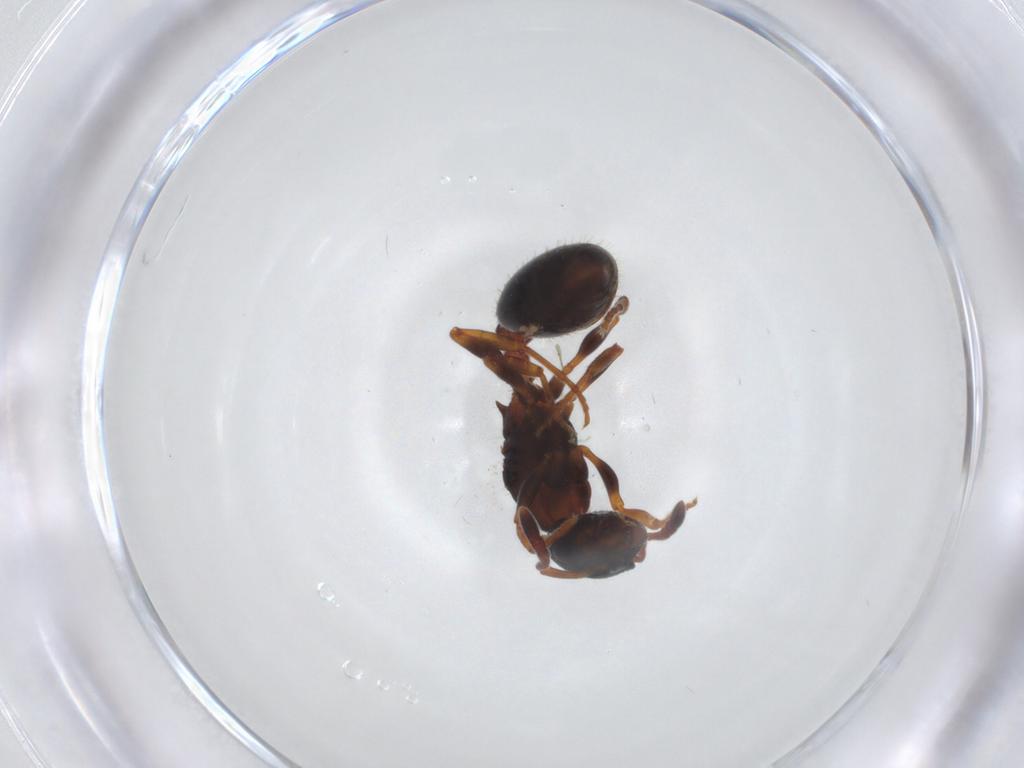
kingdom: Animalia
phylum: Arthropoda
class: Insecta
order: Hymenoptera
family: Formicidae
